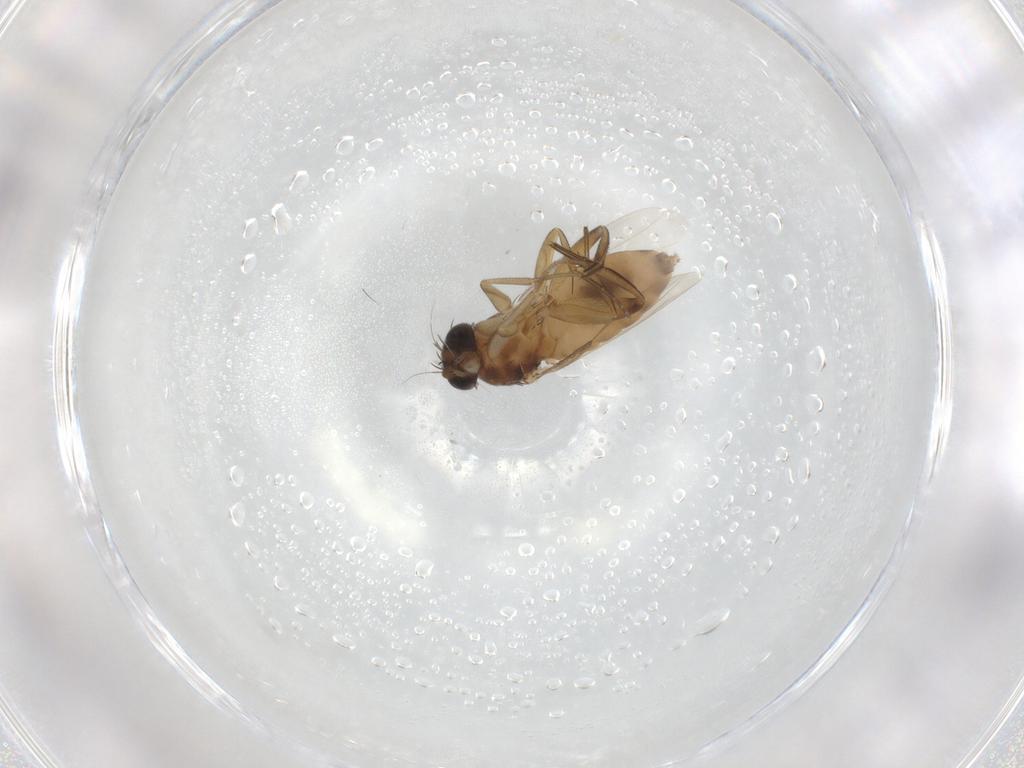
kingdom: Animalia
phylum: Arthropoda
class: Insecta
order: Diptera
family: Phoridae
